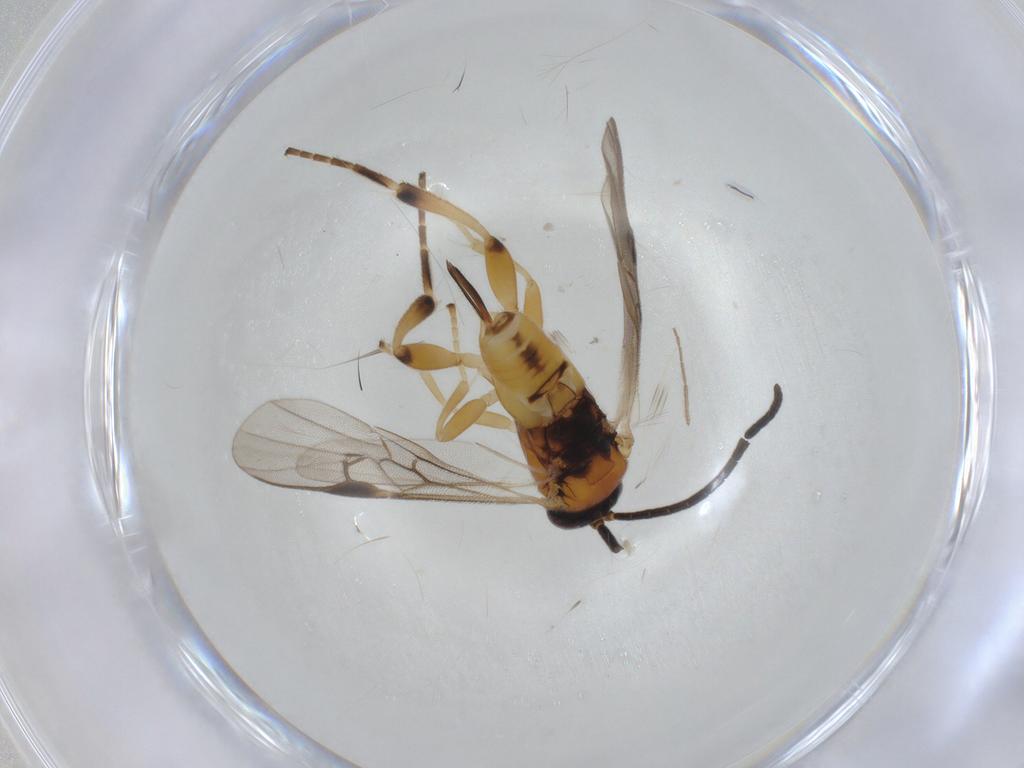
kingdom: Animalia
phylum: Arthropoda
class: Insecta
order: Hymenoptera
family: Braconidae
